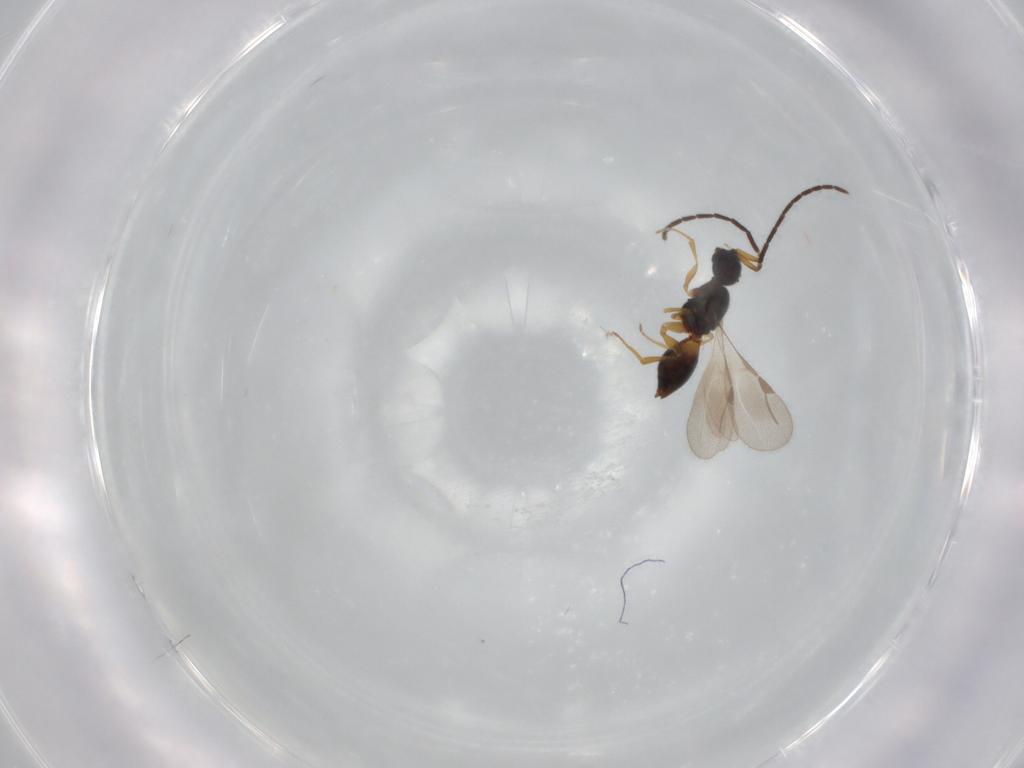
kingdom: Animalia
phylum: Arthropoda
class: Insecta
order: Hymenoptera
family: Megaspilidae
